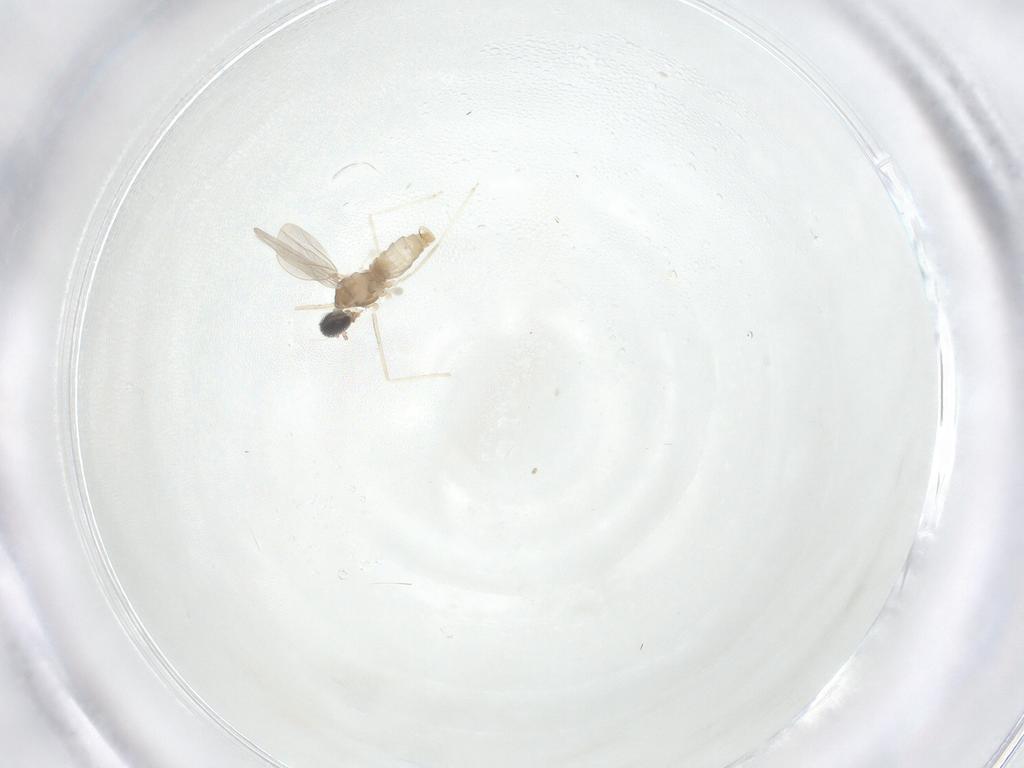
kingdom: Animalia
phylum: Arthropoda
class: Insecta
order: Diptera
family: Cecidomyiidae
